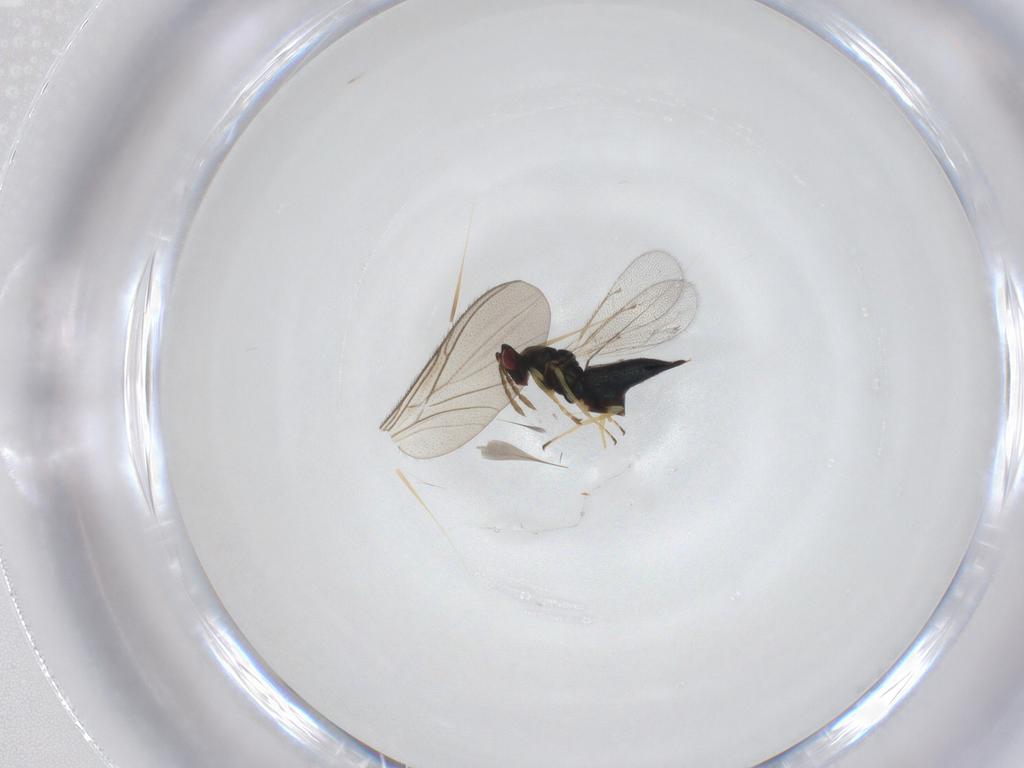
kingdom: Animalia
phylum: Arthropoda
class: Insecta
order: Hymenoptera
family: Eulophidae
